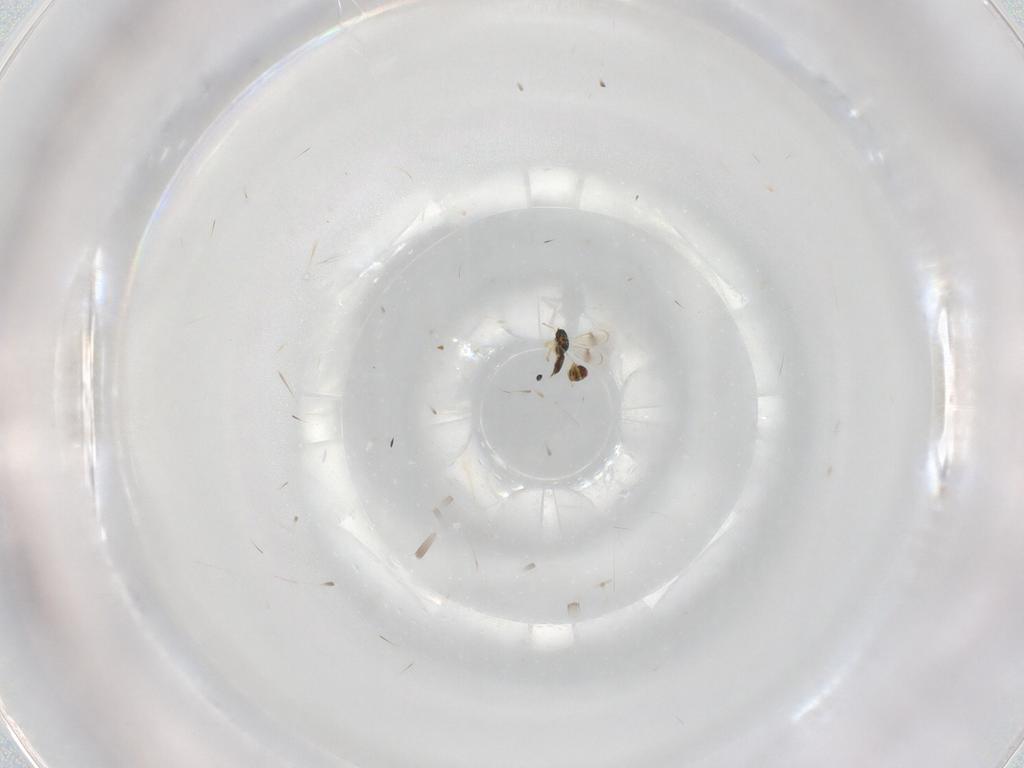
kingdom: Animalia
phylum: Arthropoda
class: Insecta
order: Hymenoptera
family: Eulophidae
